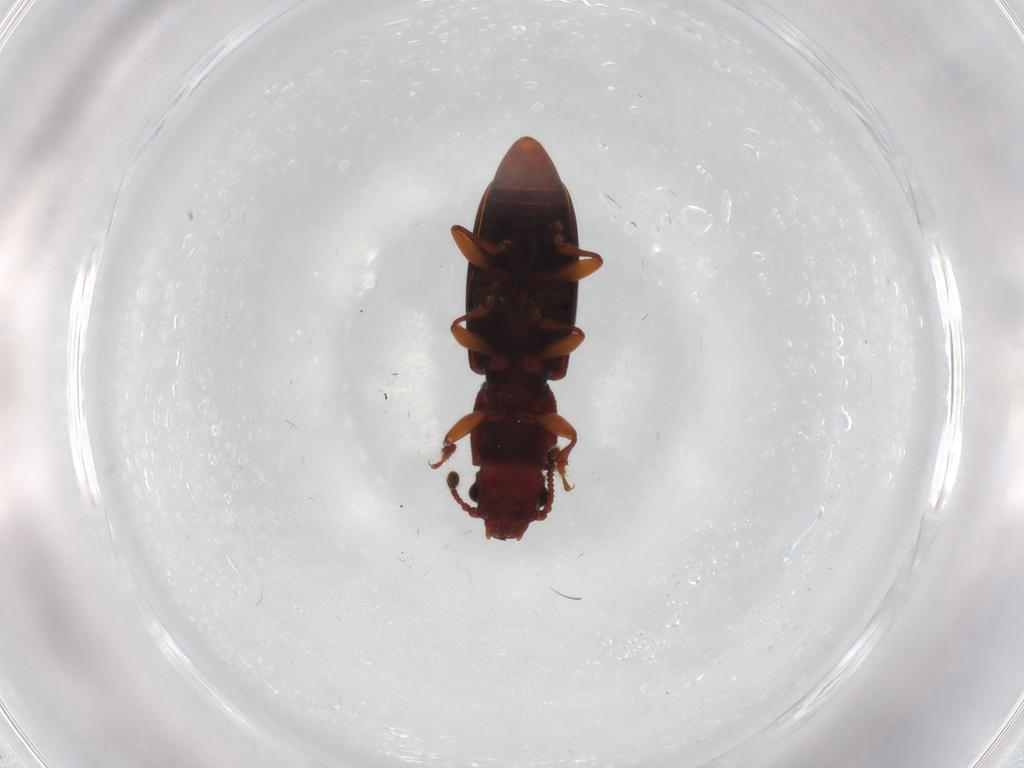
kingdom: Animalia
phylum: Arthropoda
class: Insecta
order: Coleoptera
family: Monotomidae
